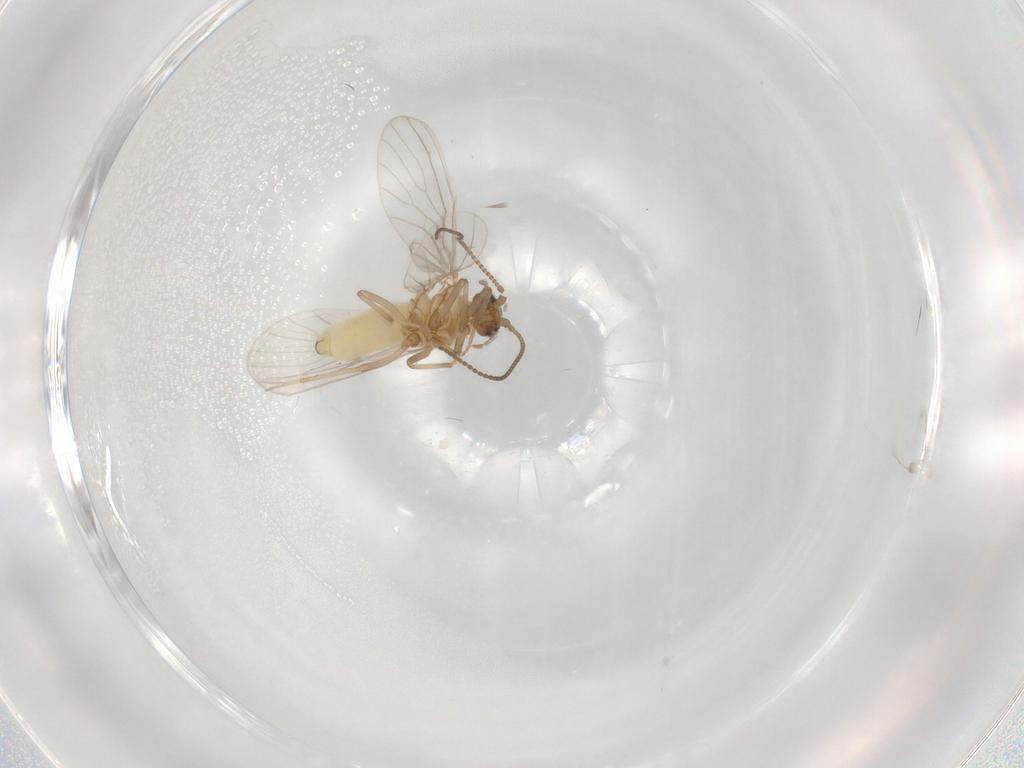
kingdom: Animalia
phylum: Arthropoda
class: Insecta
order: Neuroptera
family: Coniopterygidae
